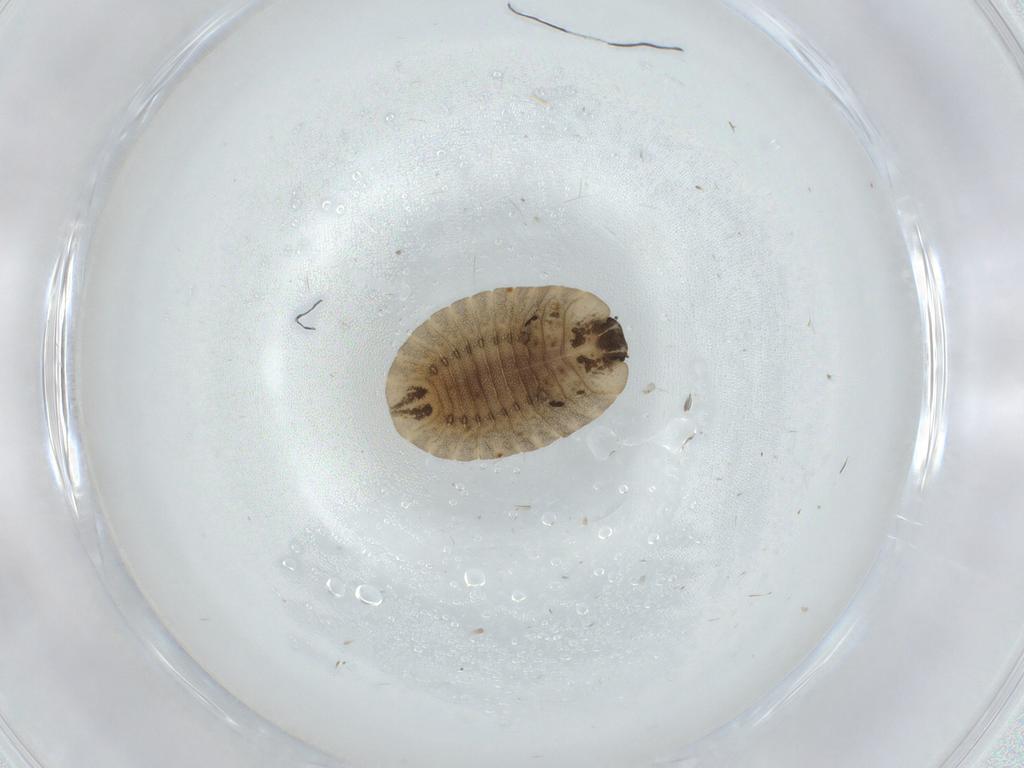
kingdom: Animalia
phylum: Arthropoda
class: Insecta
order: Coleoptera
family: Coccinellidae
